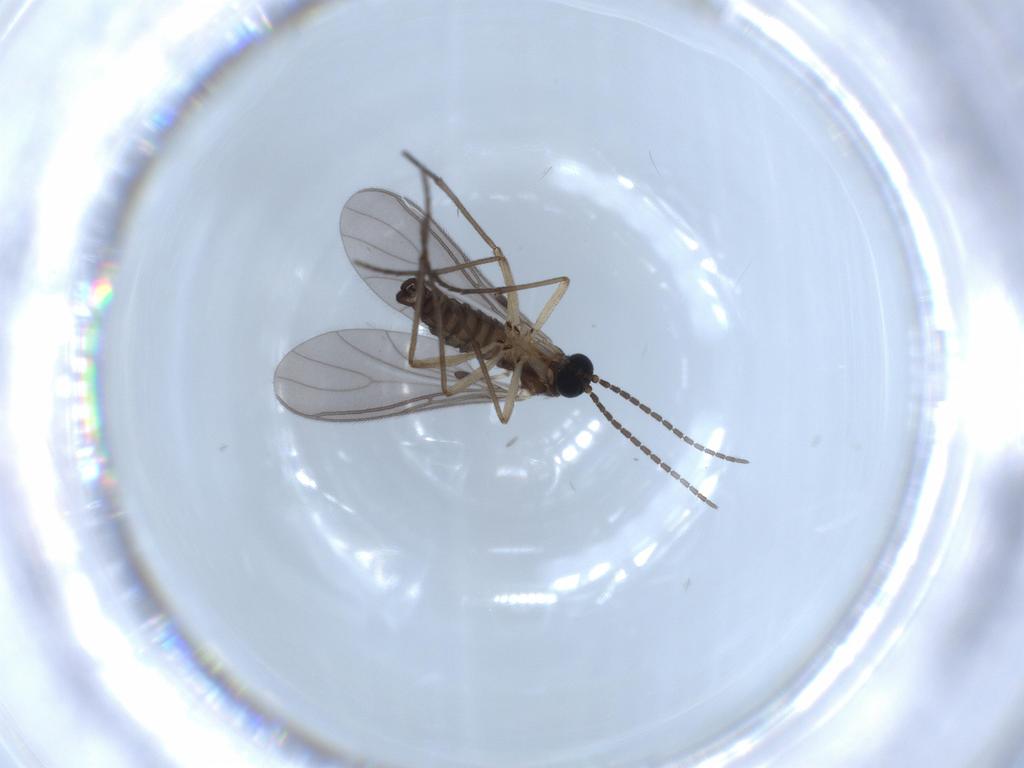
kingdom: Animalia
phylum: Arthropoda
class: Insecta
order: Diptera
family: Sciaridae
